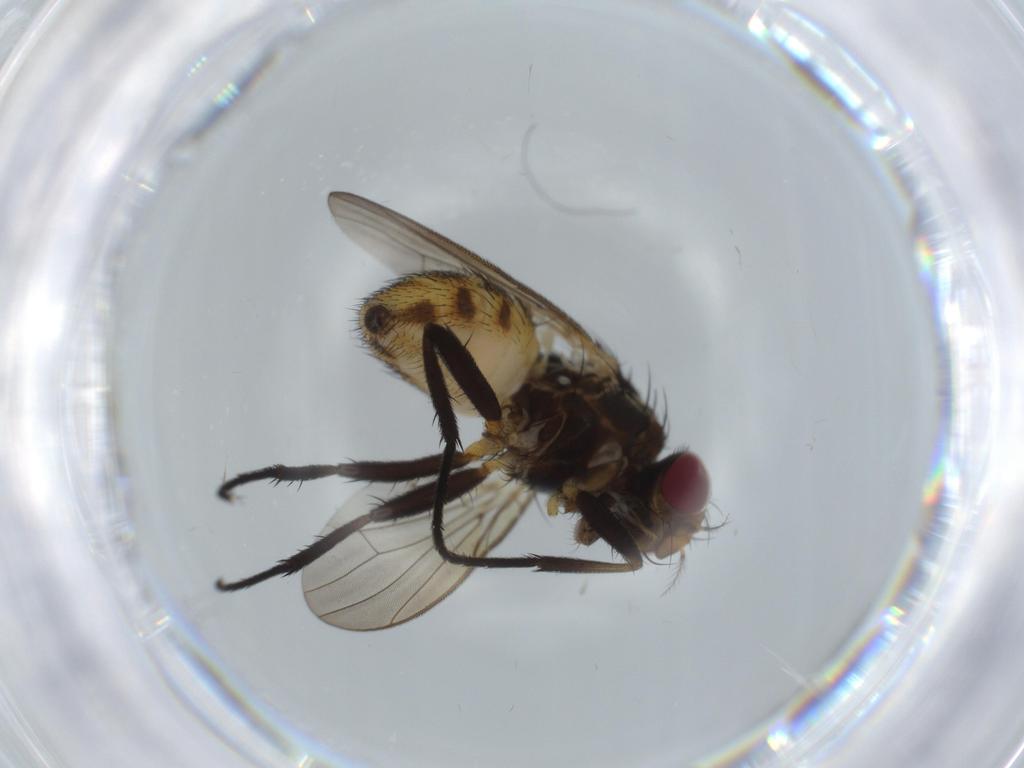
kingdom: Animalia
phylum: Arthropoda
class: Insecta
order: Diptera
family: Anthomyiidae
